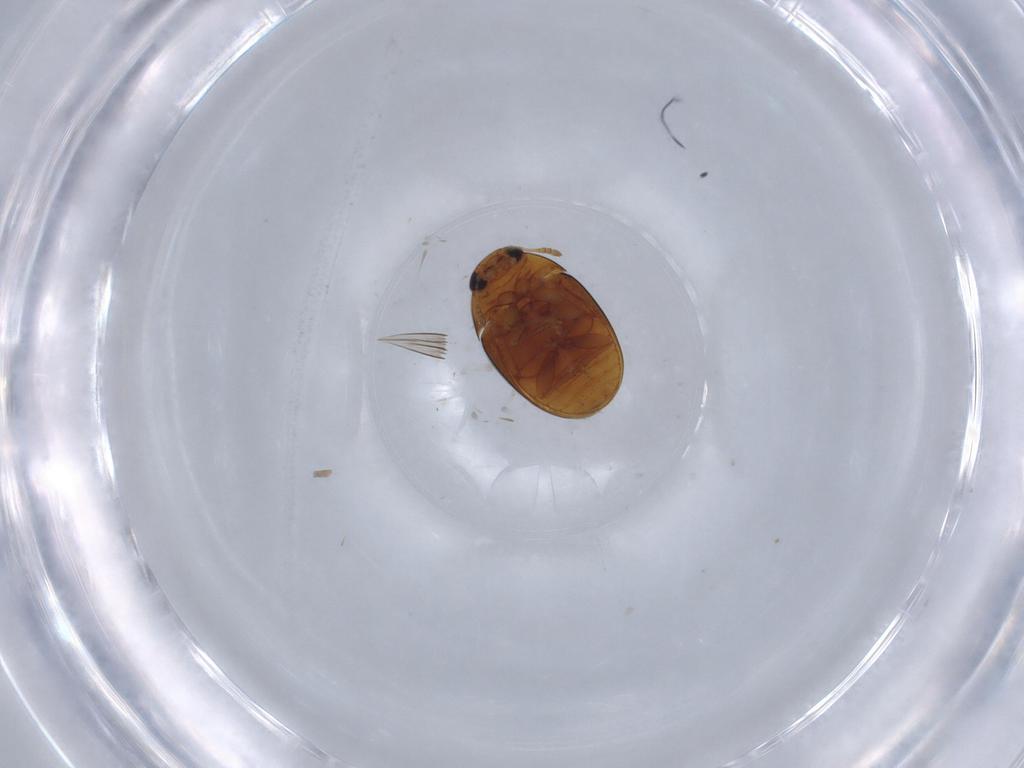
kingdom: Animalia
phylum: Arthropoda
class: Insecta
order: Coleoptera
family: Phalacridae
